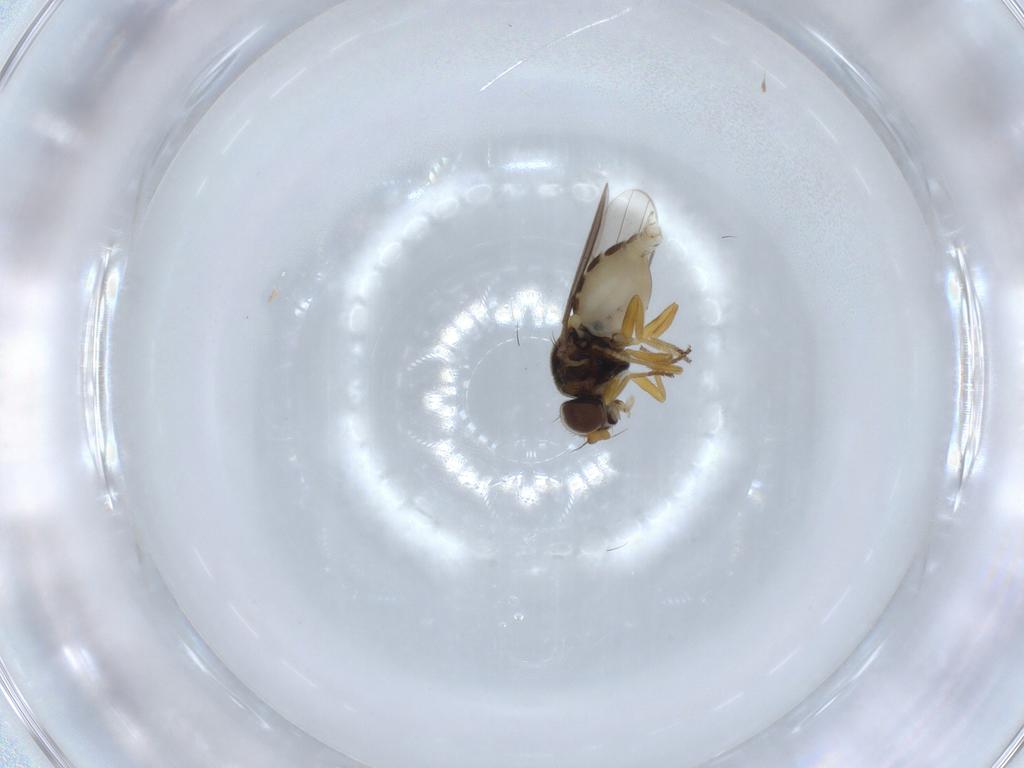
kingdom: Animalia
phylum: Arthropoda
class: Insecta
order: Diptera
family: Chloropidae
